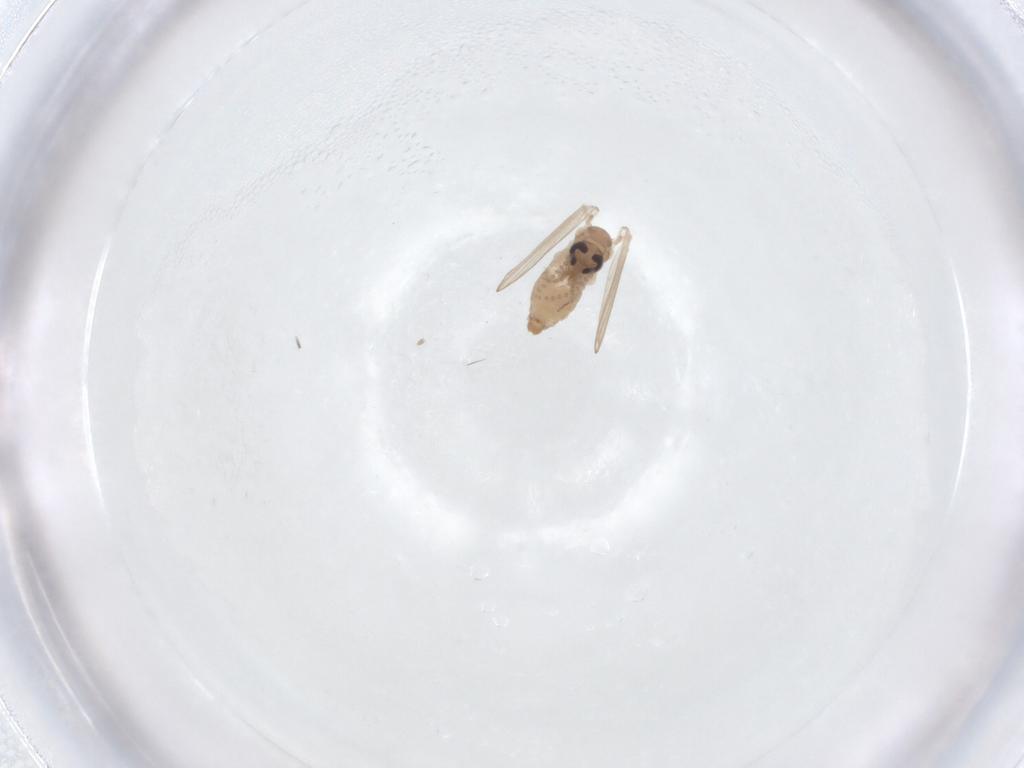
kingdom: Animalia
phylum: Arthropoda
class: Insecta
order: Diptera
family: Psychodidae
